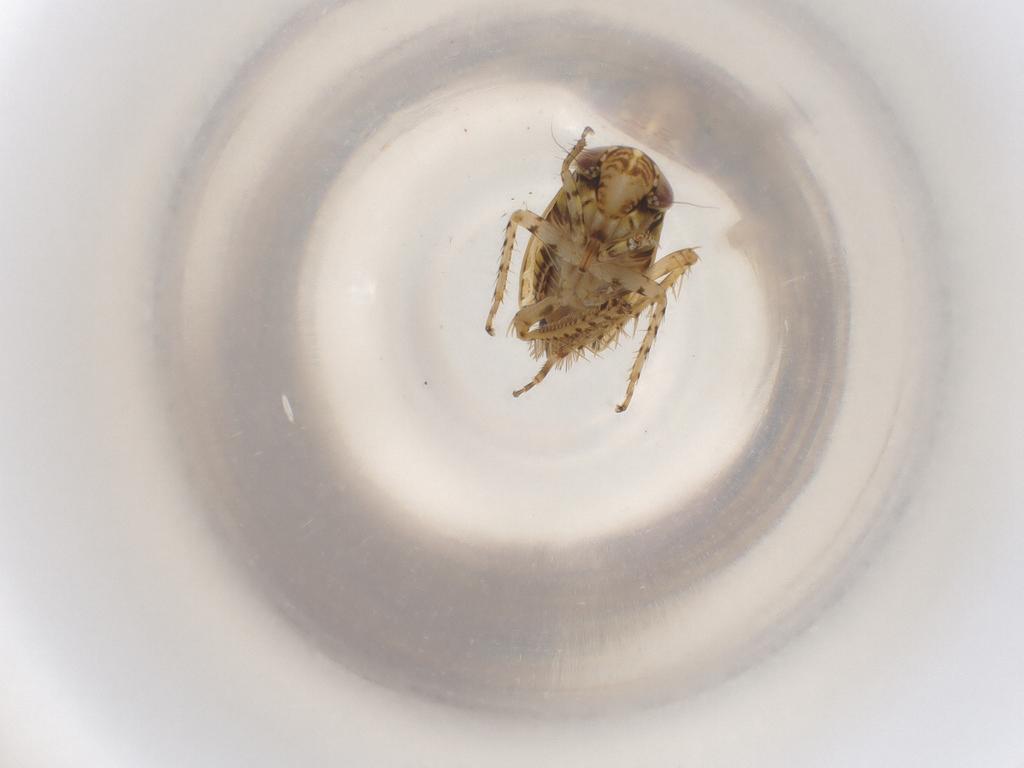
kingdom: Animalia
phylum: Arthropoda
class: Insecta
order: Hemiptera
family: Cicadellidae
